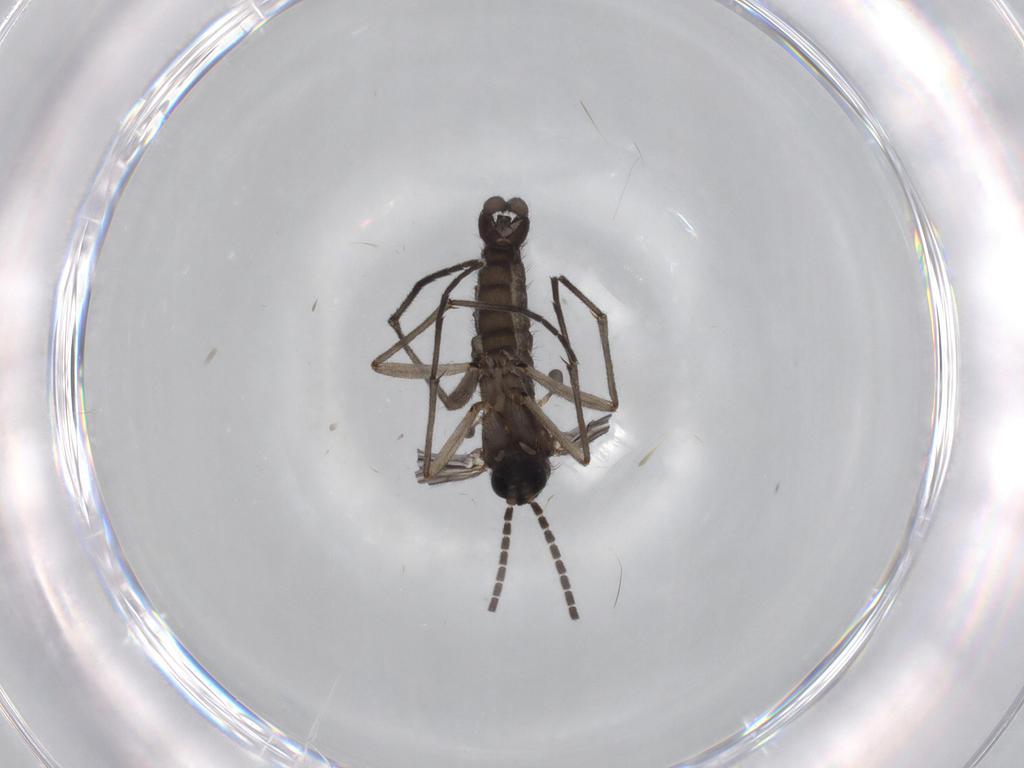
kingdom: Animalia
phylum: Arthropoda
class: Insecta
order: Diptera
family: Sciaridae
